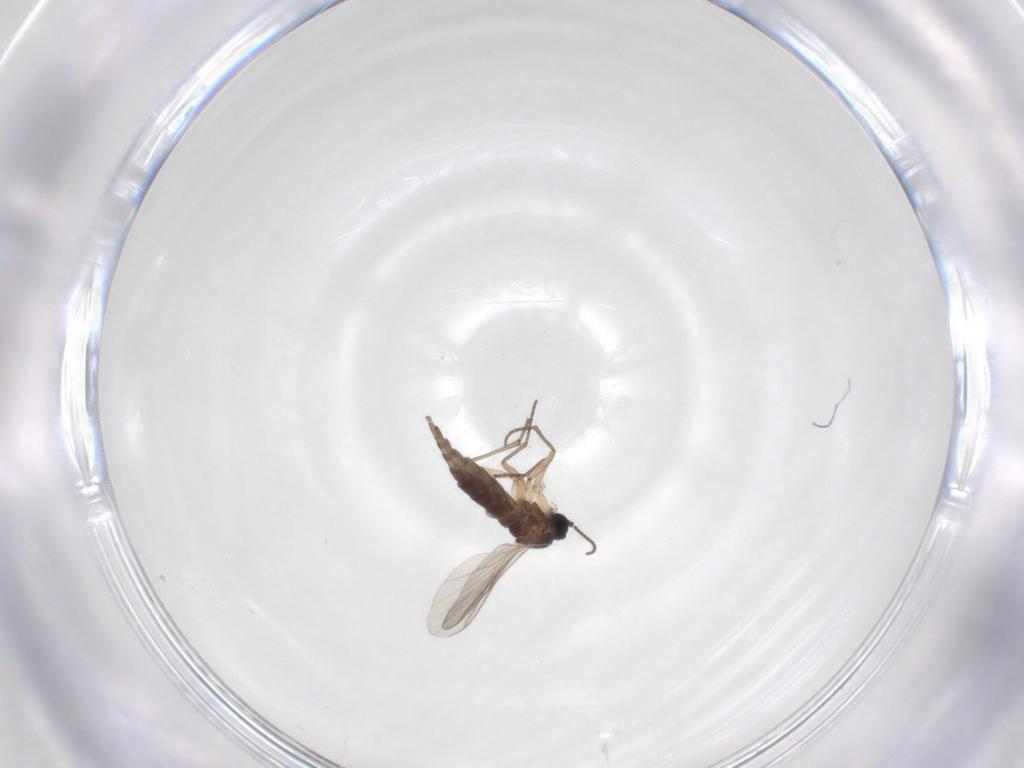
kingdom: Animalia
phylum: Arthropoda
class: Insecta
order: Diptera
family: Sciaridae
